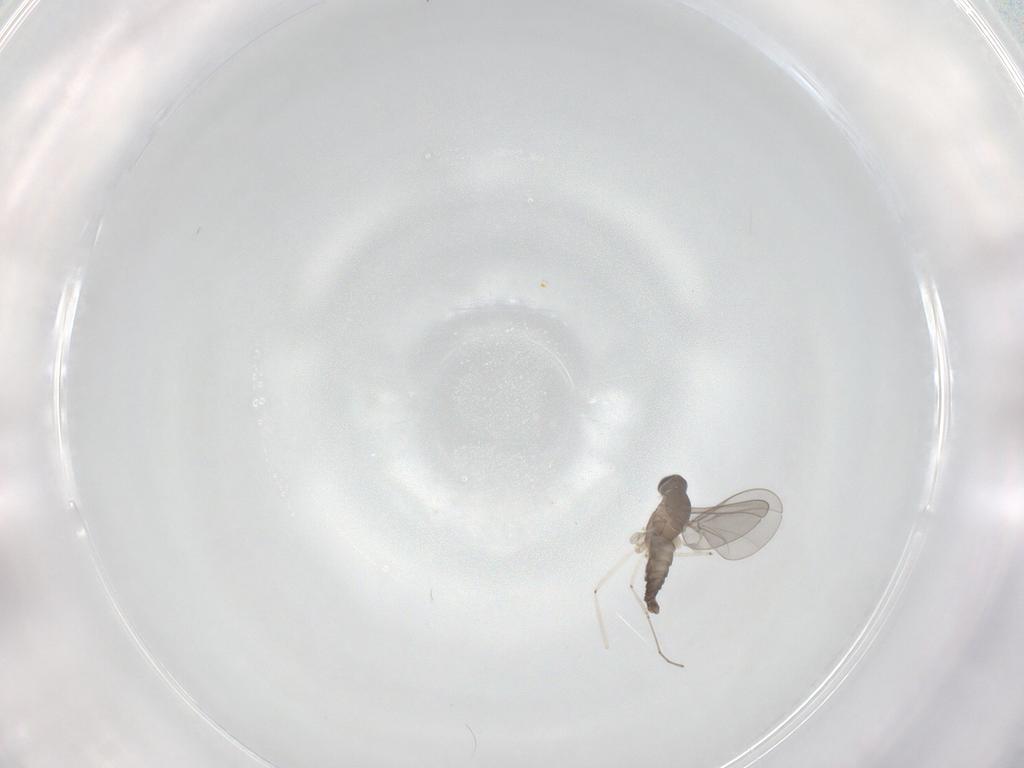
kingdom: Animalia
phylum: Arthropoda
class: Insecta
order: Diptera
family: Cecidomyiidae
